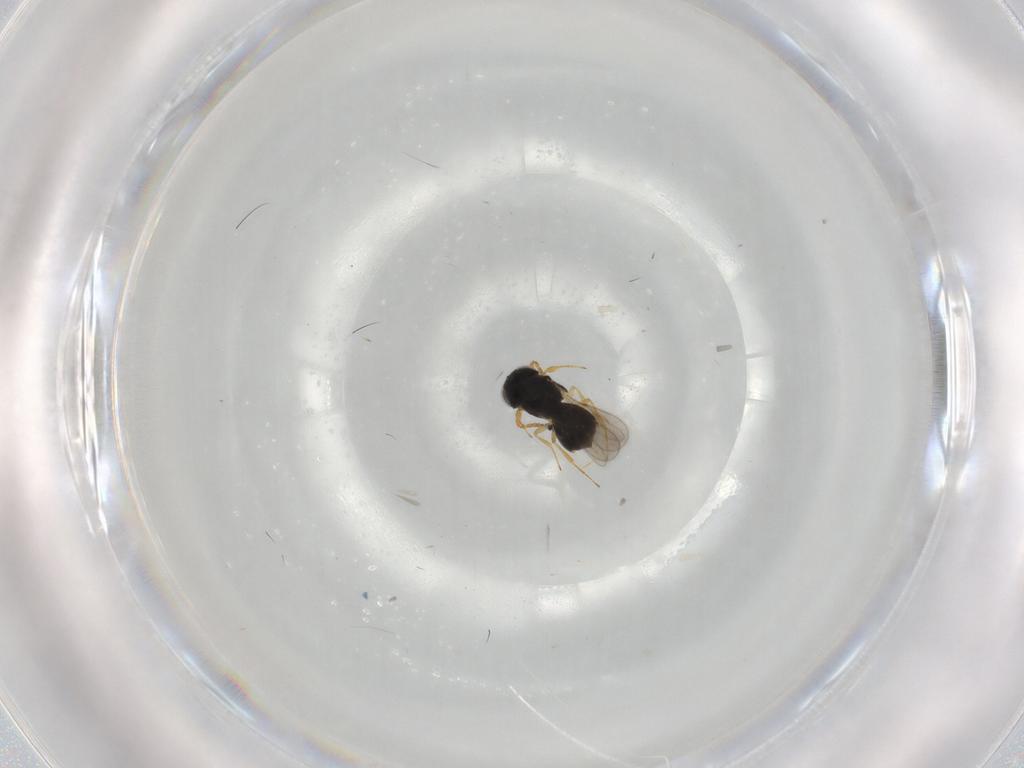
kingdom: Animalia
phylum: Arthropoda
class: Insecta
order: Hymenoptera
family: Scelionidae
